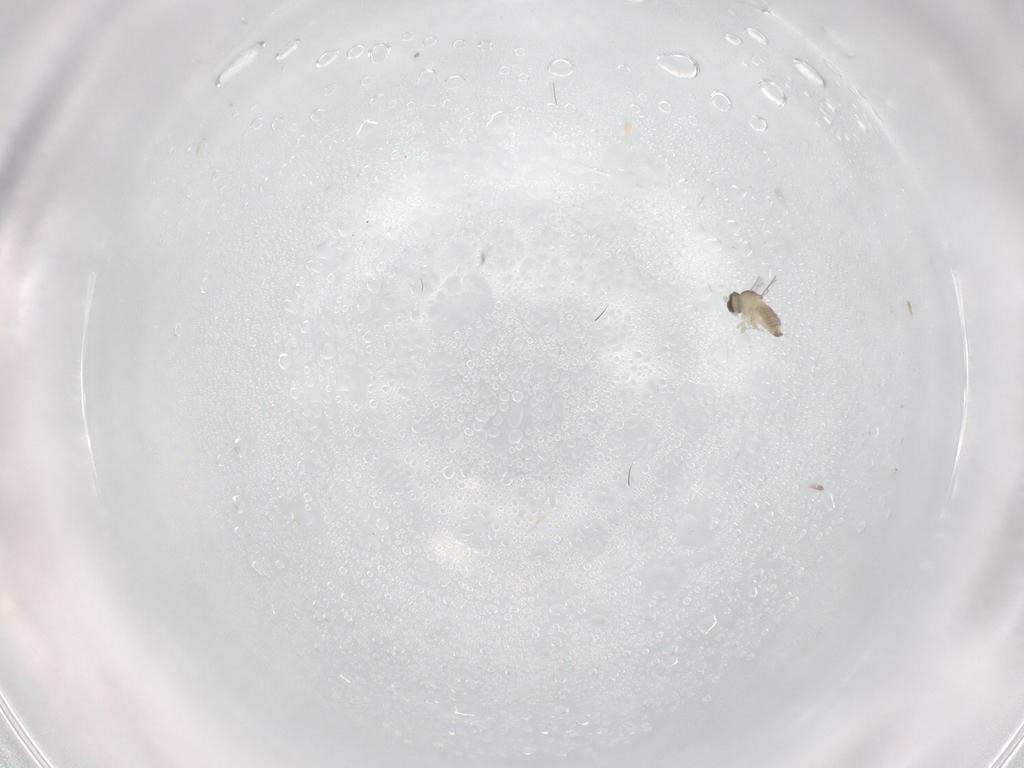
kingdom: Animalia
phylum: Arthropoda
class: Insecta
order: Diptera
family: Cecidomyiidae
